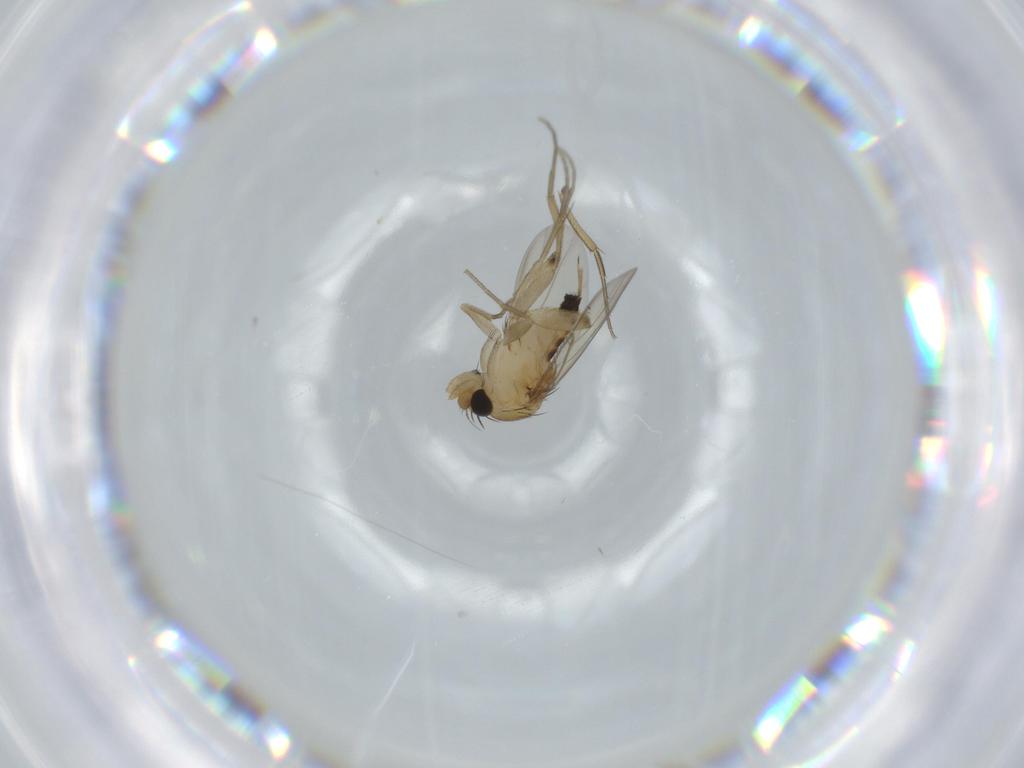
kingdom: Animalia
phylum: Arthropoda
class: Insecta
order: Diptera
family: Phoridae
